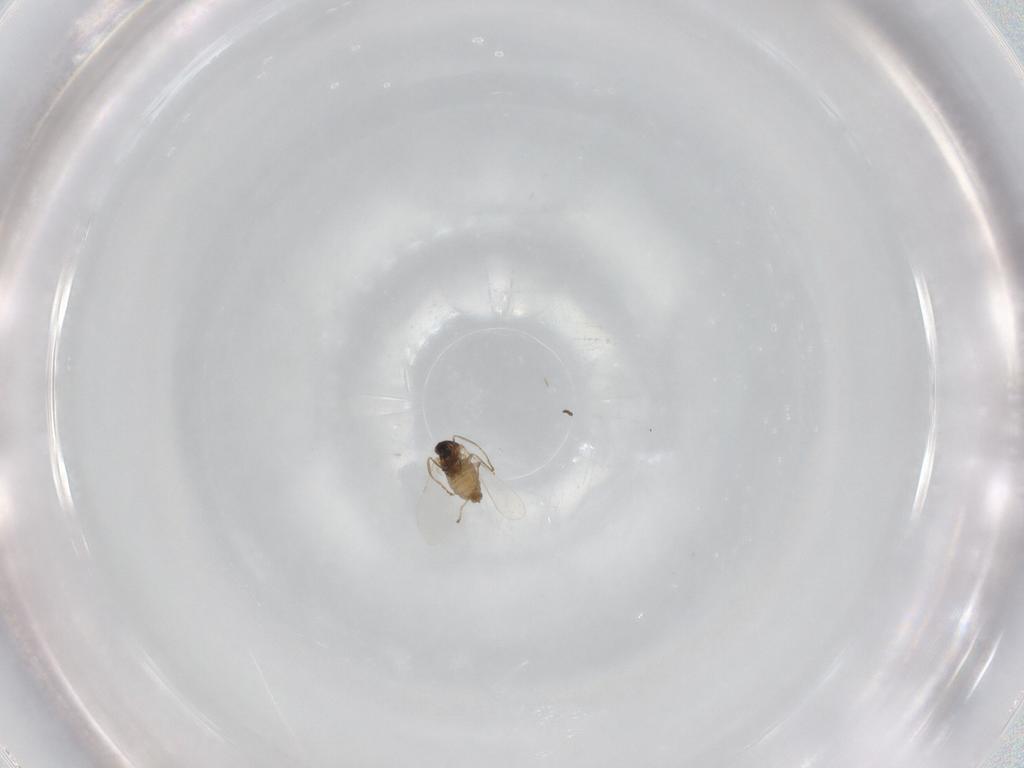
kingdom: Animalia
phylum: Arthropoda
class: Insecta
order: Diptera
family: Cecidomyiidae
